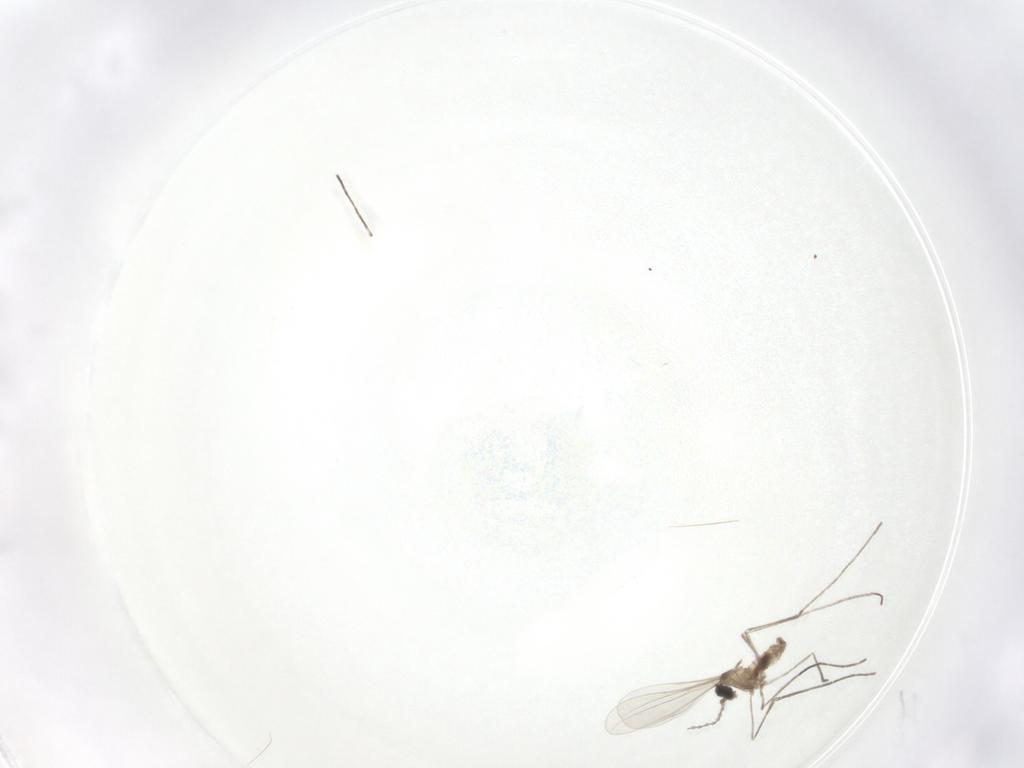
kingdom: Animalia
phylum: Arthropoda
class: Insecta
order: Diptera
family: Cecidomyiidae
